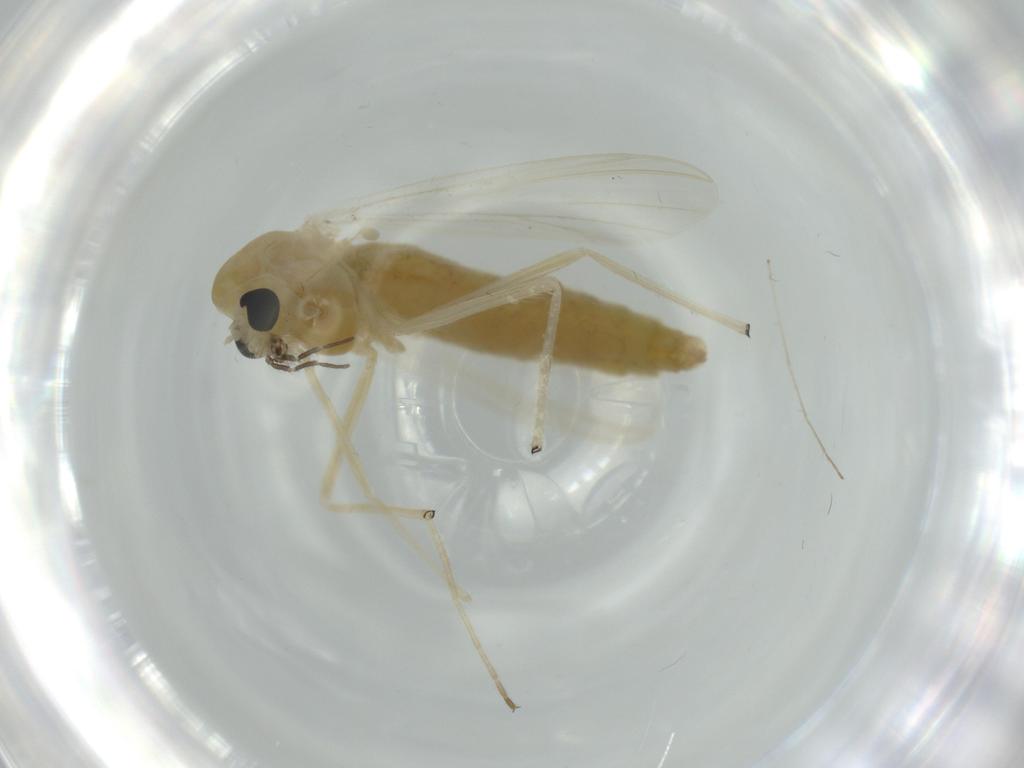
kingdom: Animalia
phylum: Arthropoda
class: Insecta
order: Diptera
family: Chironomidae
